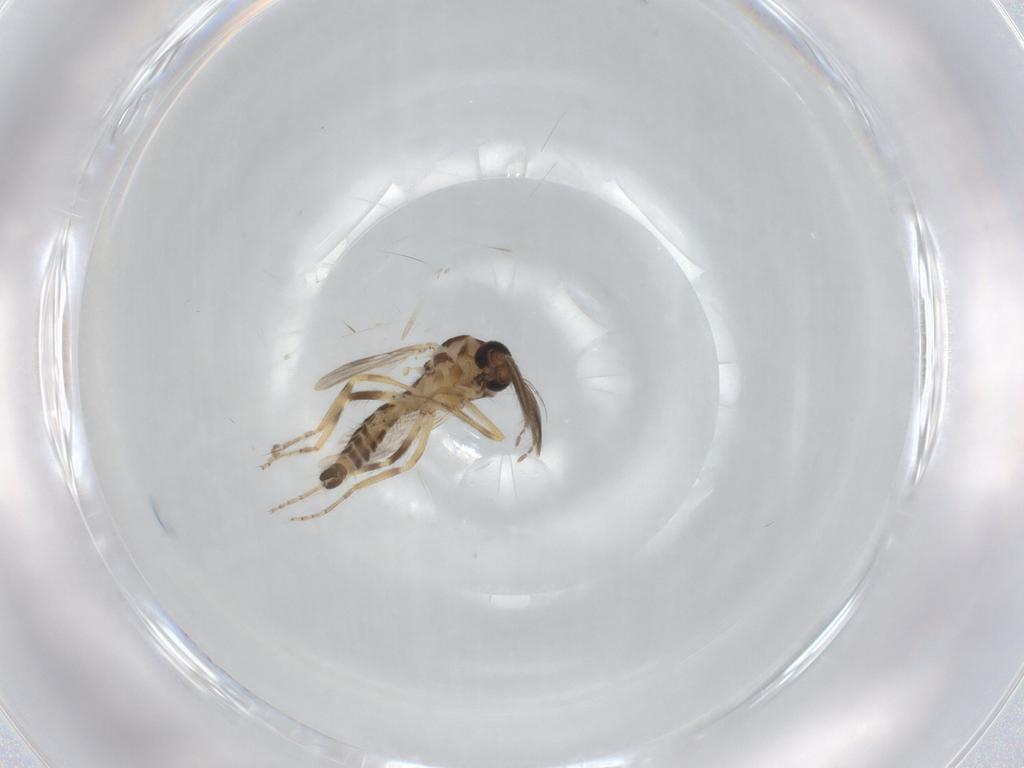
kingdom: Animalia
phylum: Arthropoda
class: Insecta
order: Diptera
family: Ceratopogonidae
